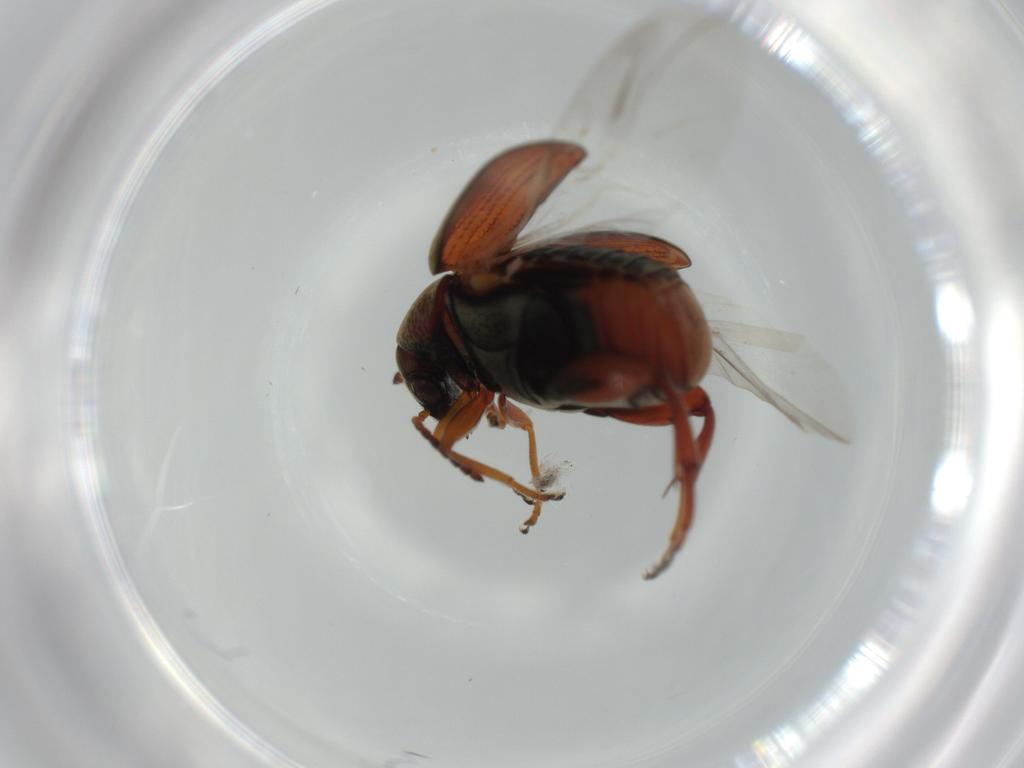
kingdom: Animalia
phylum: Arthropoda
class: Insecta
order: Coleoptera
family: Chrysomelidae
